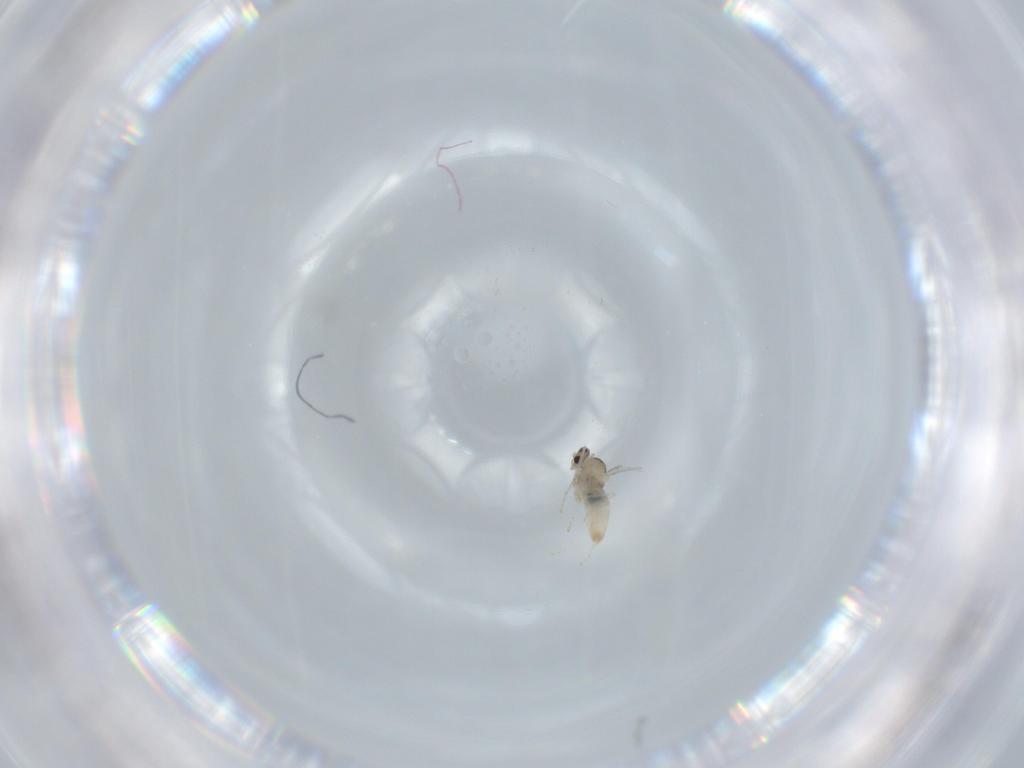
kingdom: Animalia
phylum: Arthropoda
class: Insecta
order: Diptera
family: Cecidomyiidae
